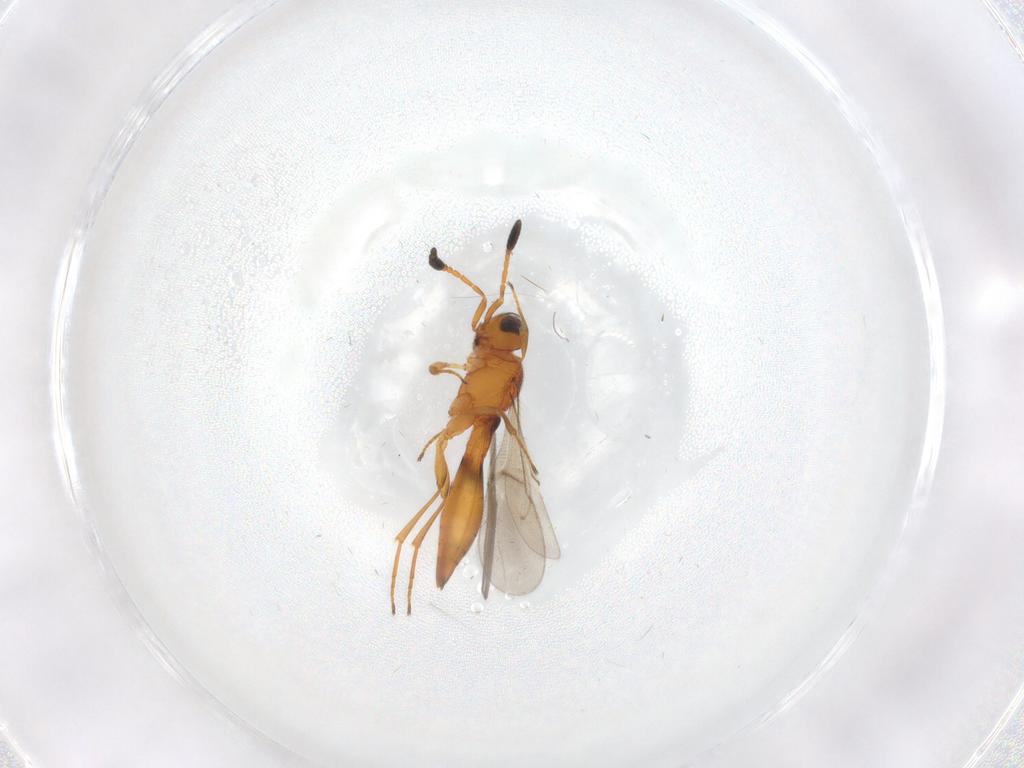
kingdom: Animalia
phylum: Arthropoda
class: Insecta
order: Hymenoptera
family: Scelionidae
